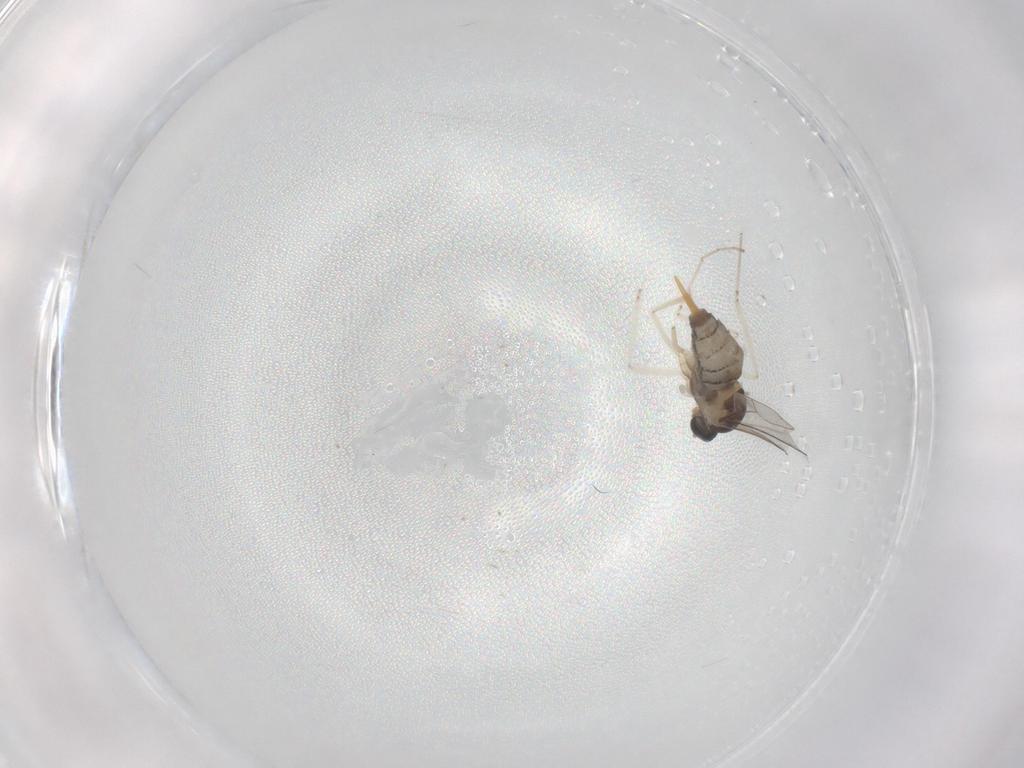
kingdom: Animalia
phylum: Arthropoda
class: Insecta
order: Diptera
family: Cecidomyiidae
